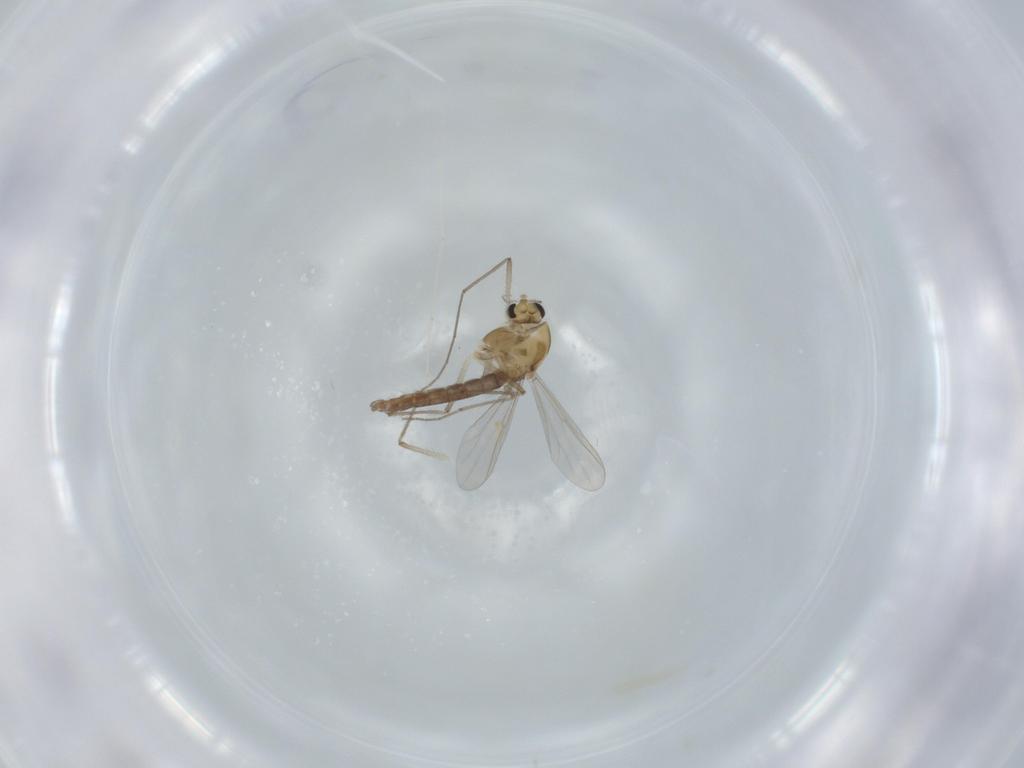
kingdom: Animalia
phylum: Arthropoda
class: Insecta
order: Diptera
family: Chironomidae
